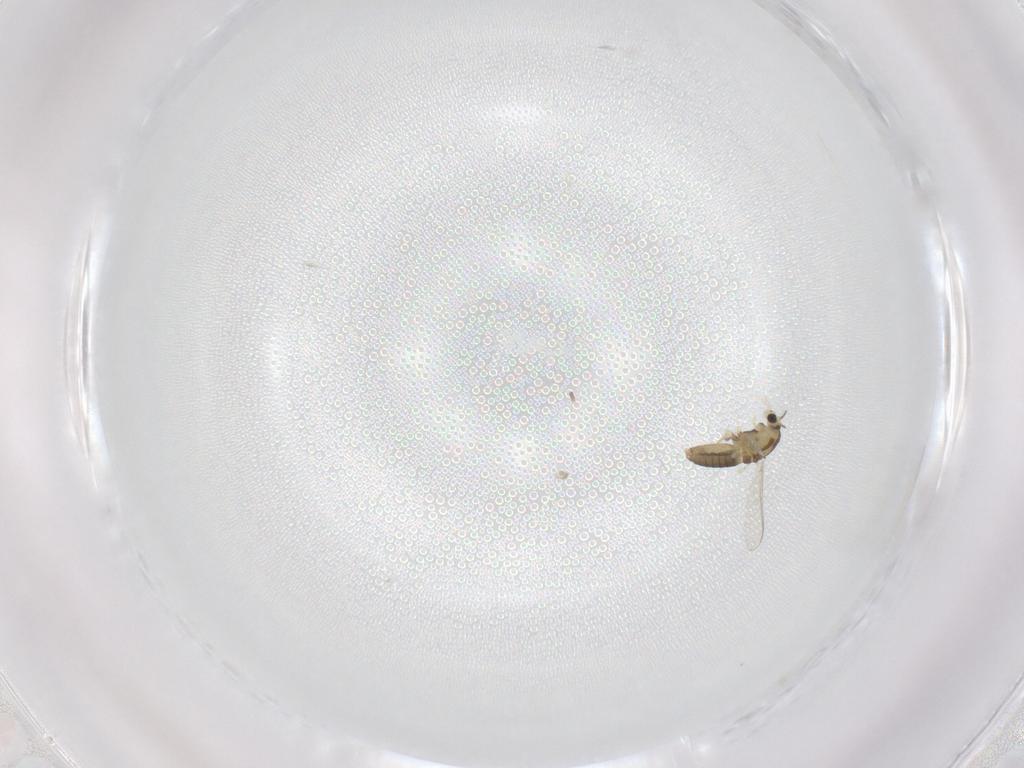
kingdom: Animalia
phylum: Arthropoda
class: Insecta
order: Diptera
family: Chironomidae
